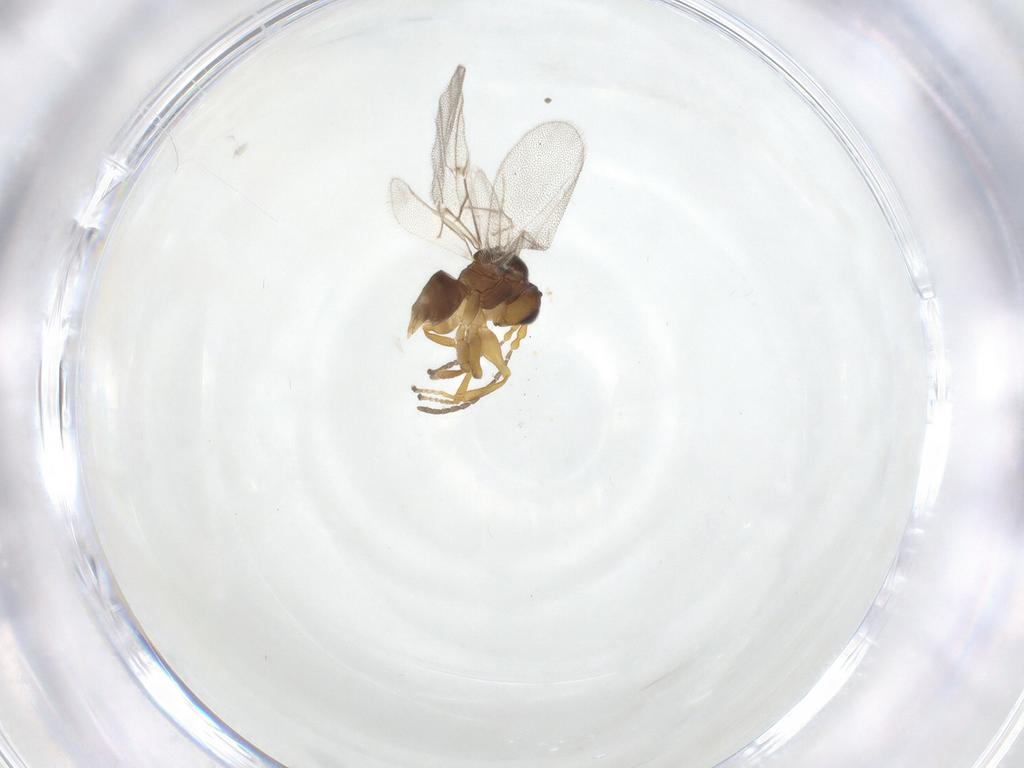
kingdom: Animalia
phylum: Arthropoda
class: Insecta
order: Hymenoptera
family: Cynipidae
